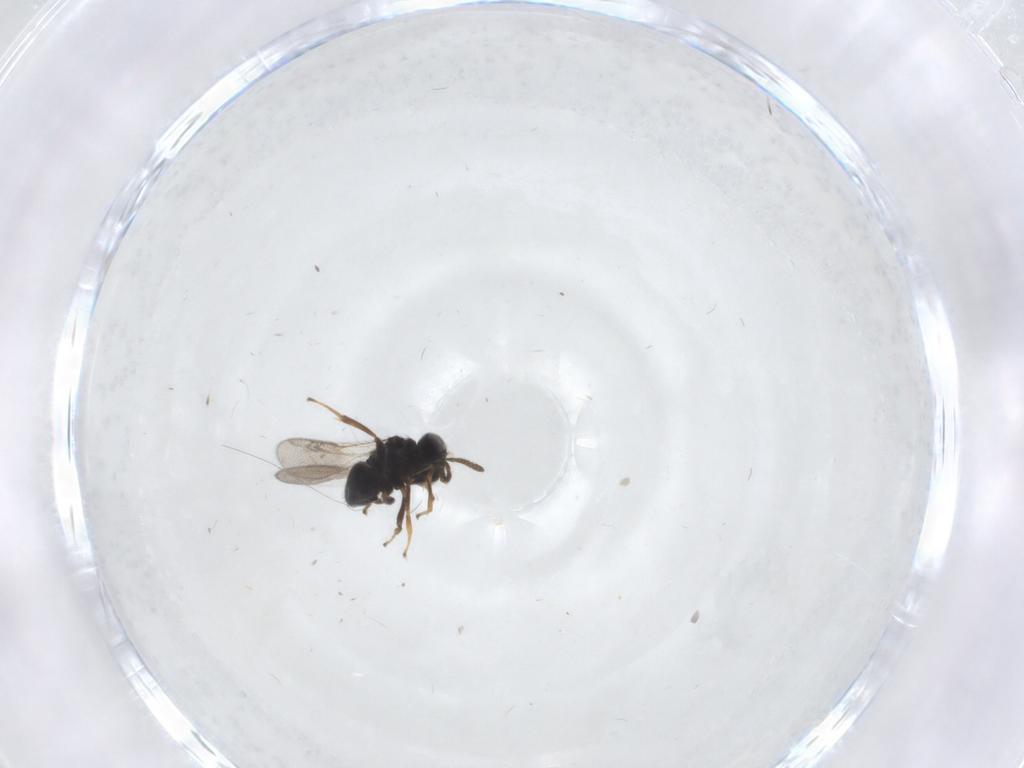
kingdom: Animalia
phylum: Arthropoda
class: Insecta
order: Hymenoptera
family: Pteromalidae
